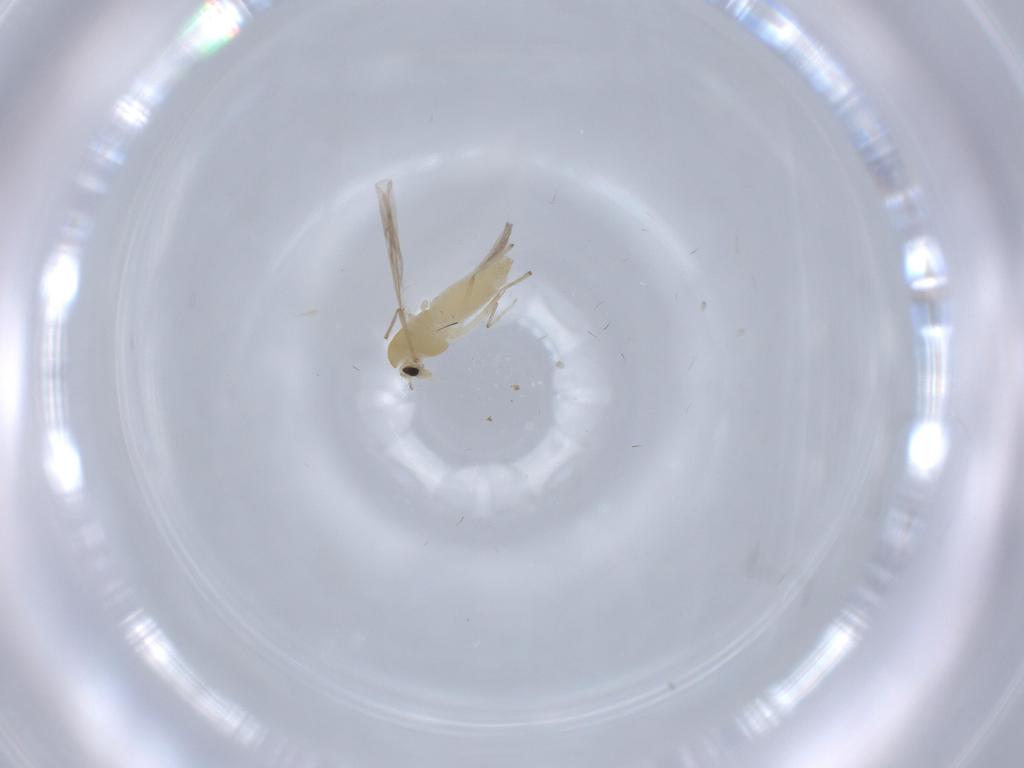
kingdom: Animalia
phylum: Arthropoda
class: Insecta
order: Diptera
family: Chironomidae
